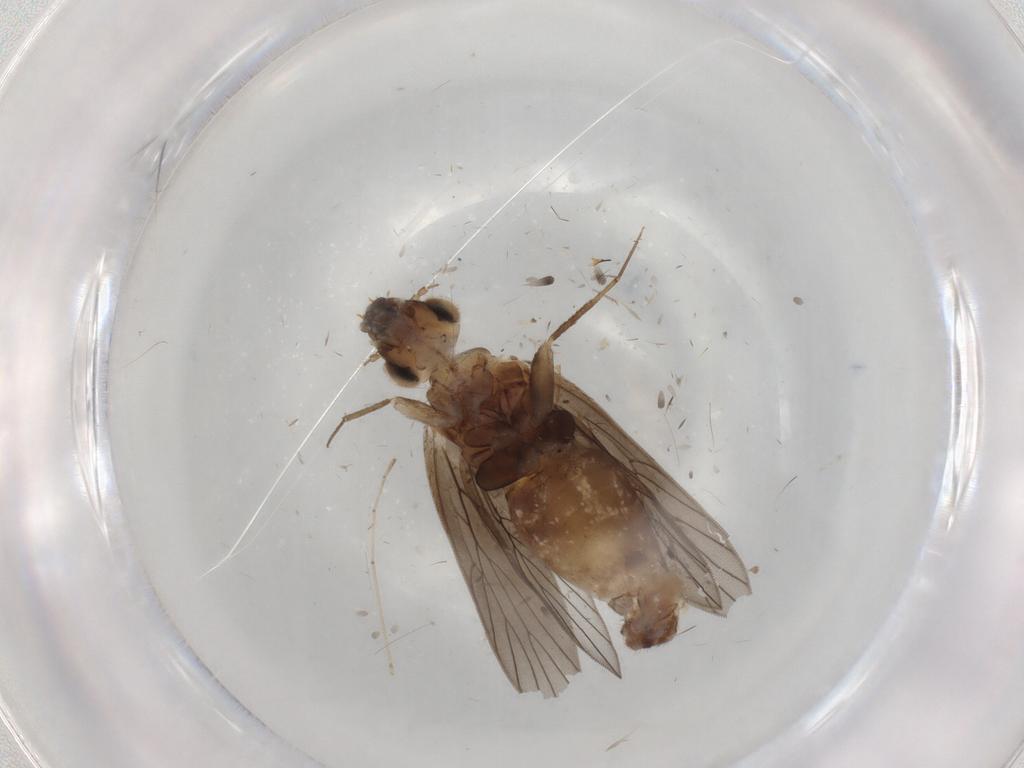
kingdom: Animalia
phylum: Arthropoda
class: Insecta
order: Psocodea
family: Lepidopsocidae
